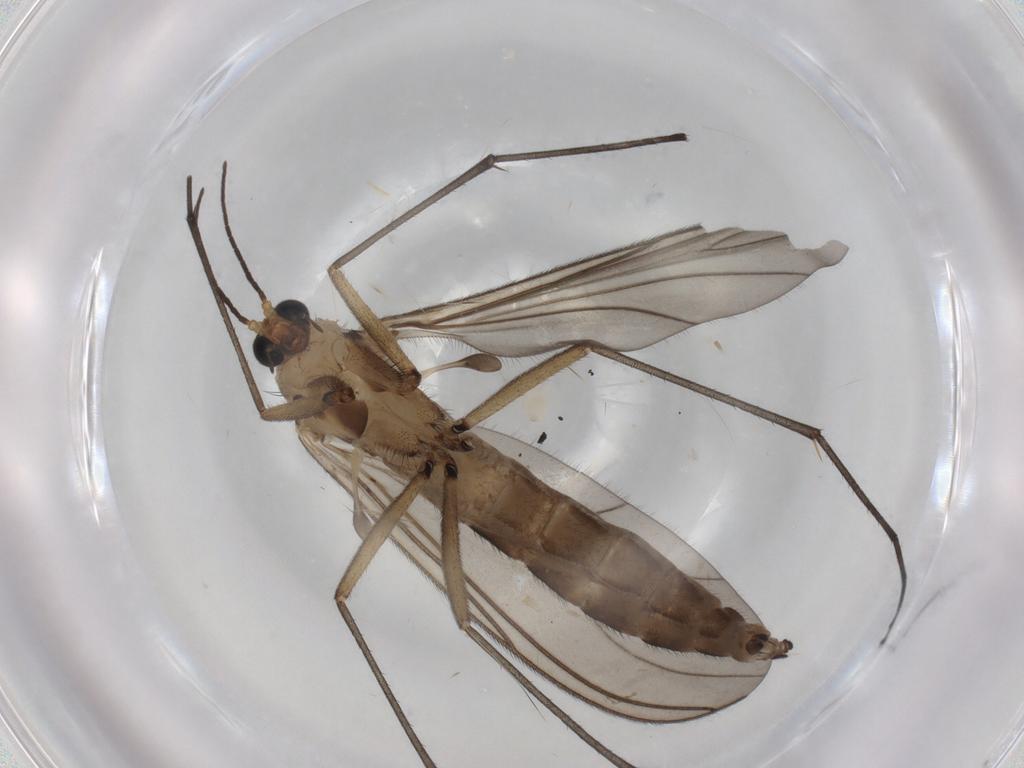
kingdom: Animalia
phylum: Arthropoda
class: Insecta
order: Diptera
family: Sciaridae
